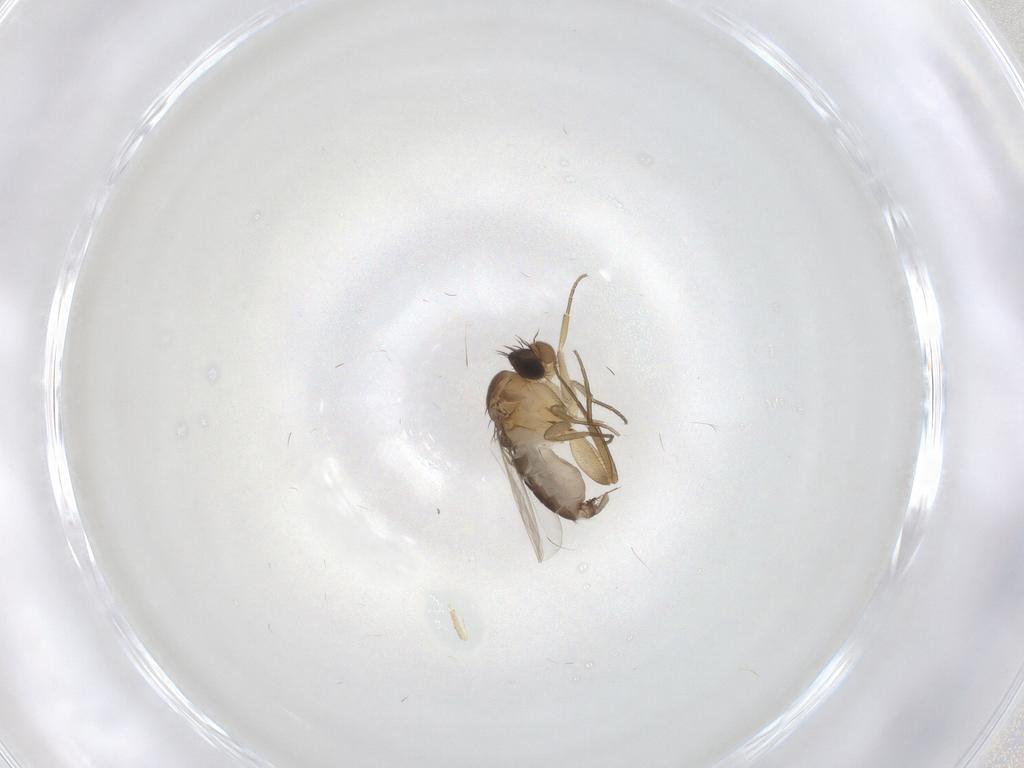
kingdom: Animalia
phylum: Arthropoda
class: Insecta
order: Diptera
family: Phoridae
